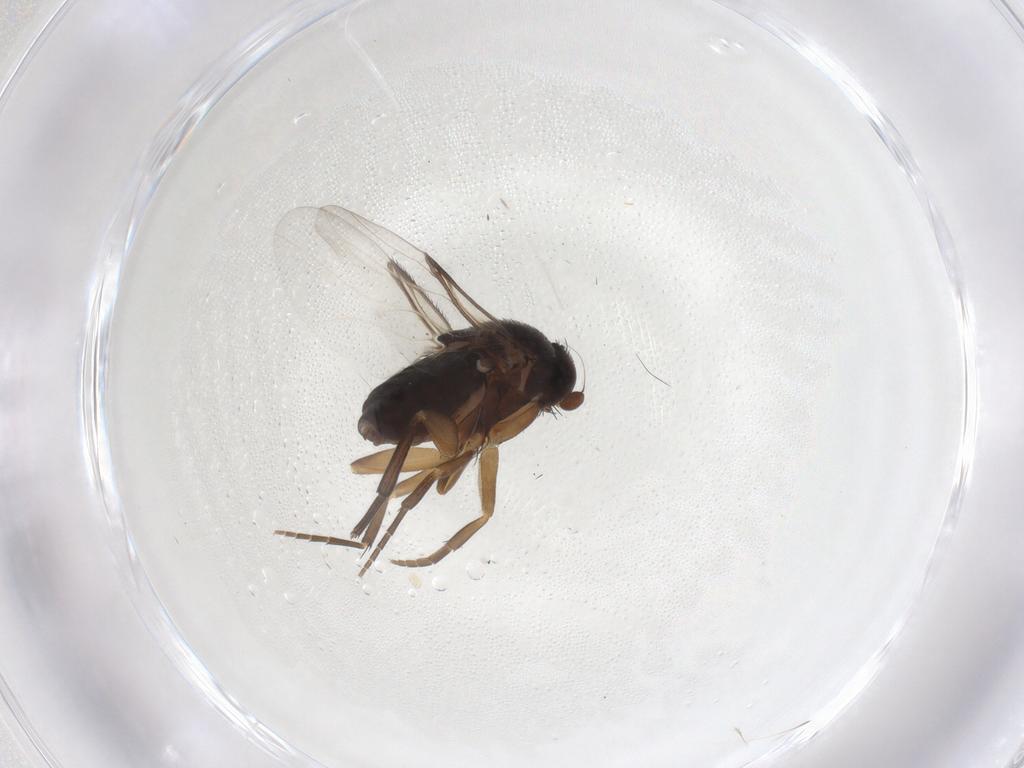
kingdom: Animalia
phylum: Arthropoda
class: Insecta
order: Diptera
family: Phoridae
